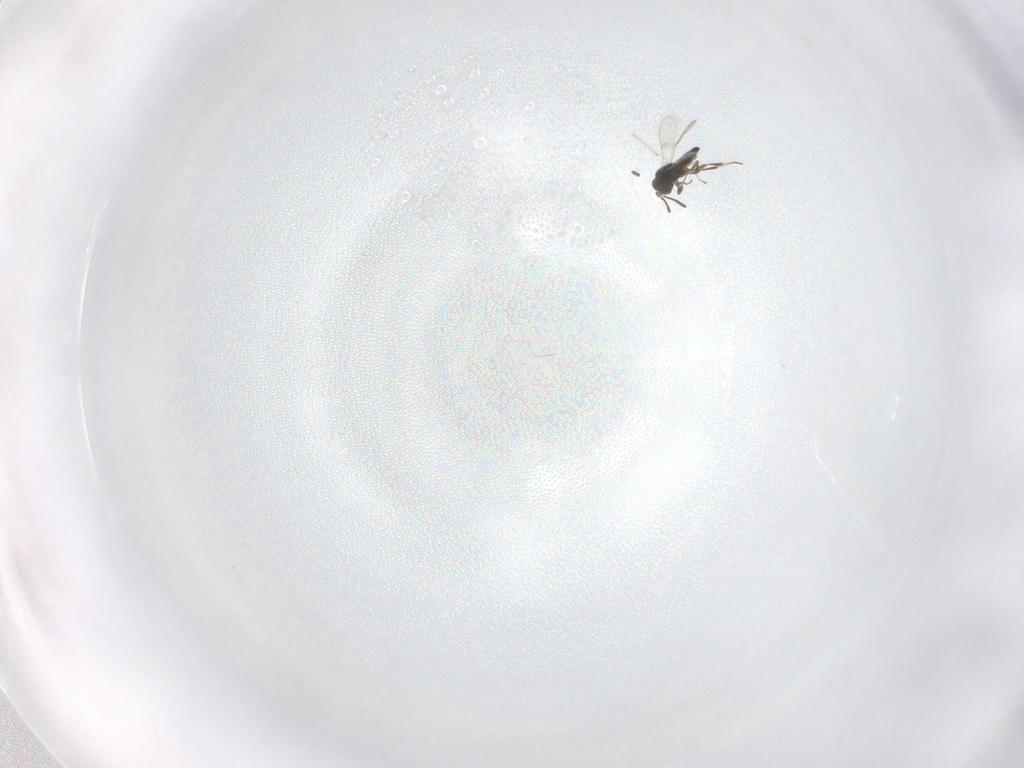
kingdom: Animalia
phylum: Arthropoda
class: Insecta
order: Hymenoptera
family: Scelionidae
